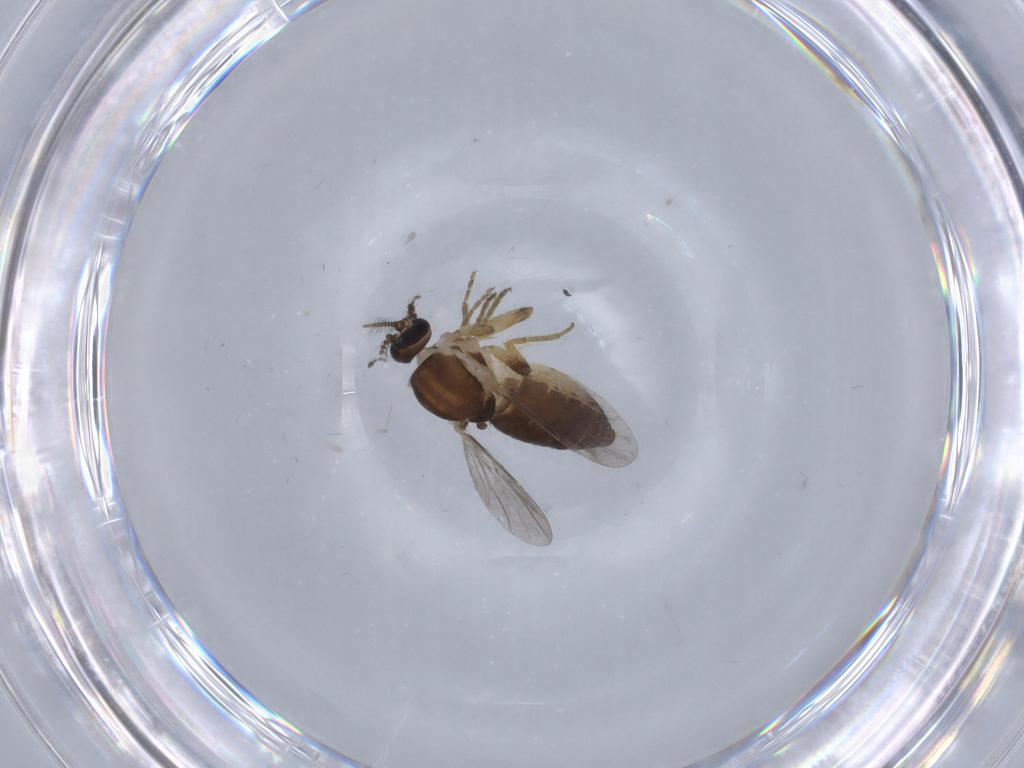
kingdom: Animalia
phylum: Arthropoda
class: Insecta
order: Diptera
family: Ceratopogonidae
